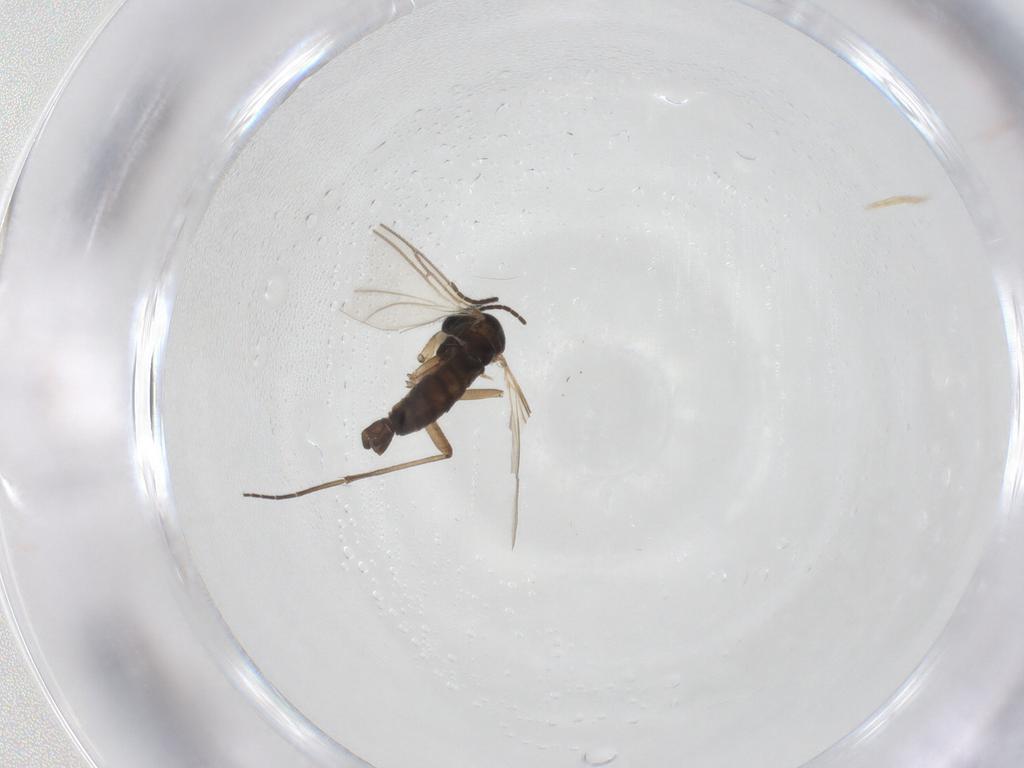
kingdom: Animalia
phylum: Arthropoda
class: Insecta
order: Diptera
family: Sciaridae
